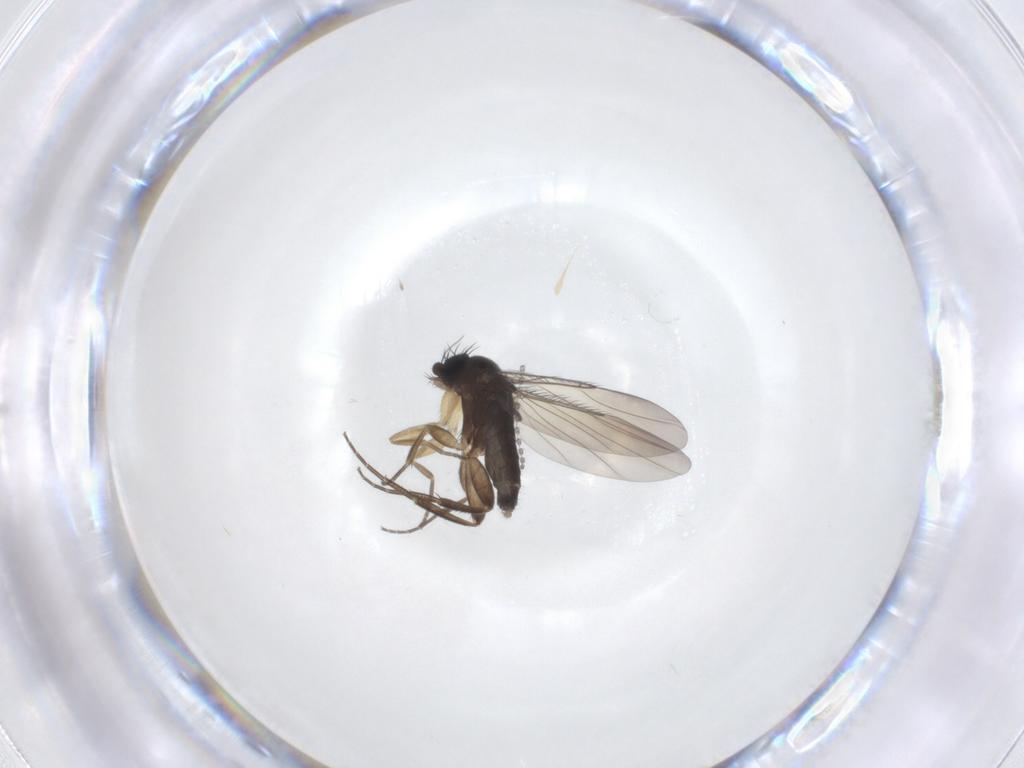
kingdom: Animalia
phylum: Arthropoda
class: Insecta
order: Diptera
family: Phoridae
